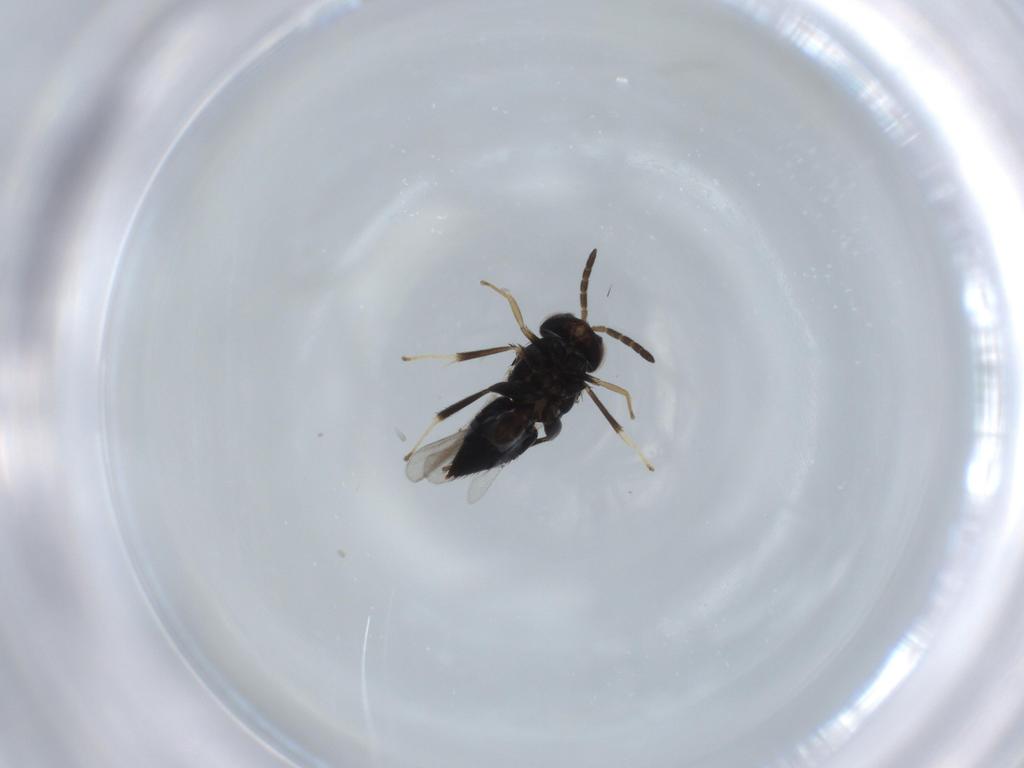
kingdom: Animalia
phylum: Arthropoda
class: Insecta
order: Hymenoptera
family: Aphelinidae
